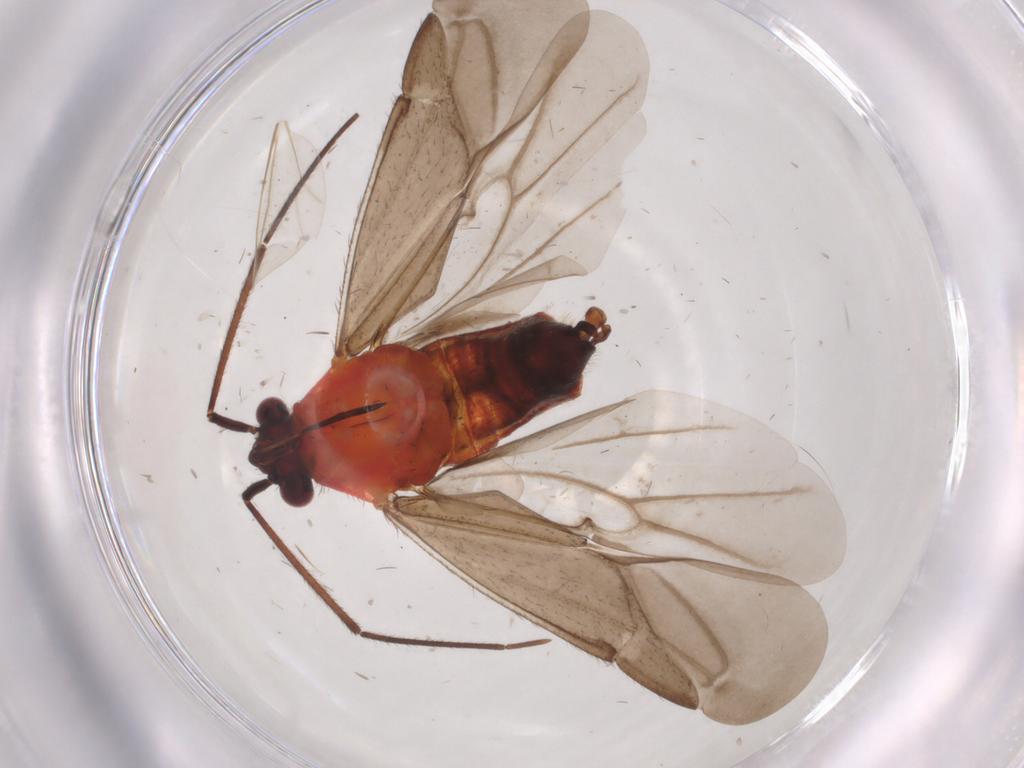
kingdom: Animalia
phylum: Arthropoda
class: Insecta
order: Hemiptera
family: Miridae
